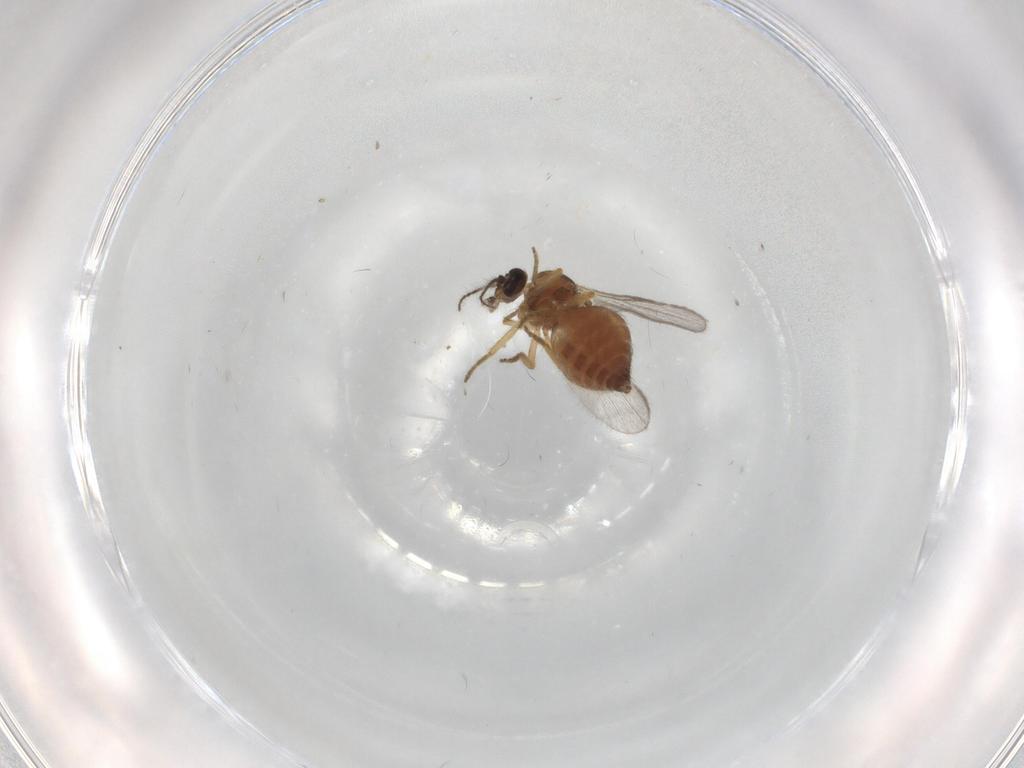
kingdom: Animalia
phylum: Arthropoda
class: Insecta
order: Diptera
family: Ceratopogonidae
